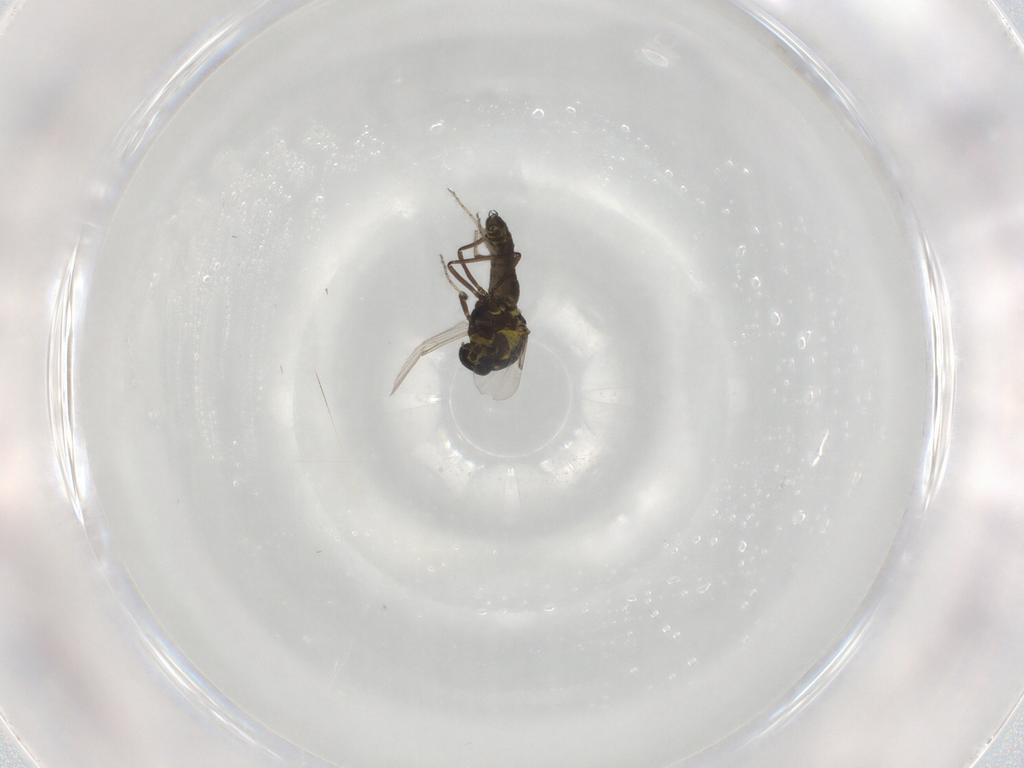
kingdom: Animalia
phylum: Arthropoda
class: Insecta
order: Diptera
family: Ceratopogonidae
